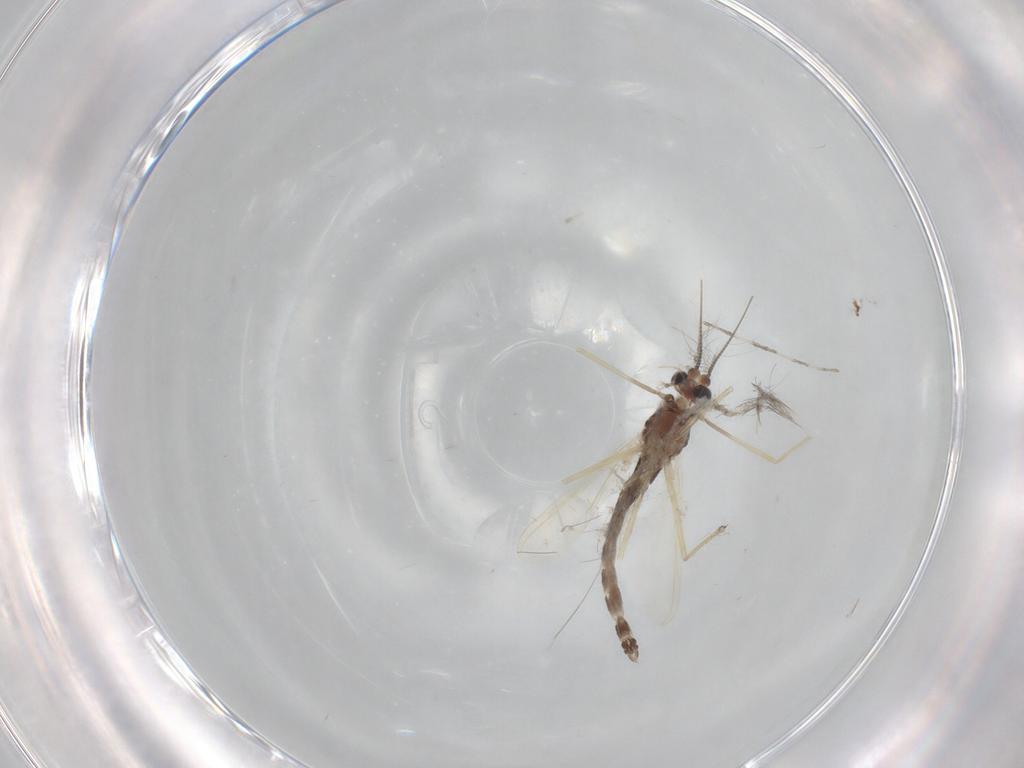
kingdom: Animalia
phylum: Arthropoda
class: Insecta
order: Diptera
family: Chironomidae
